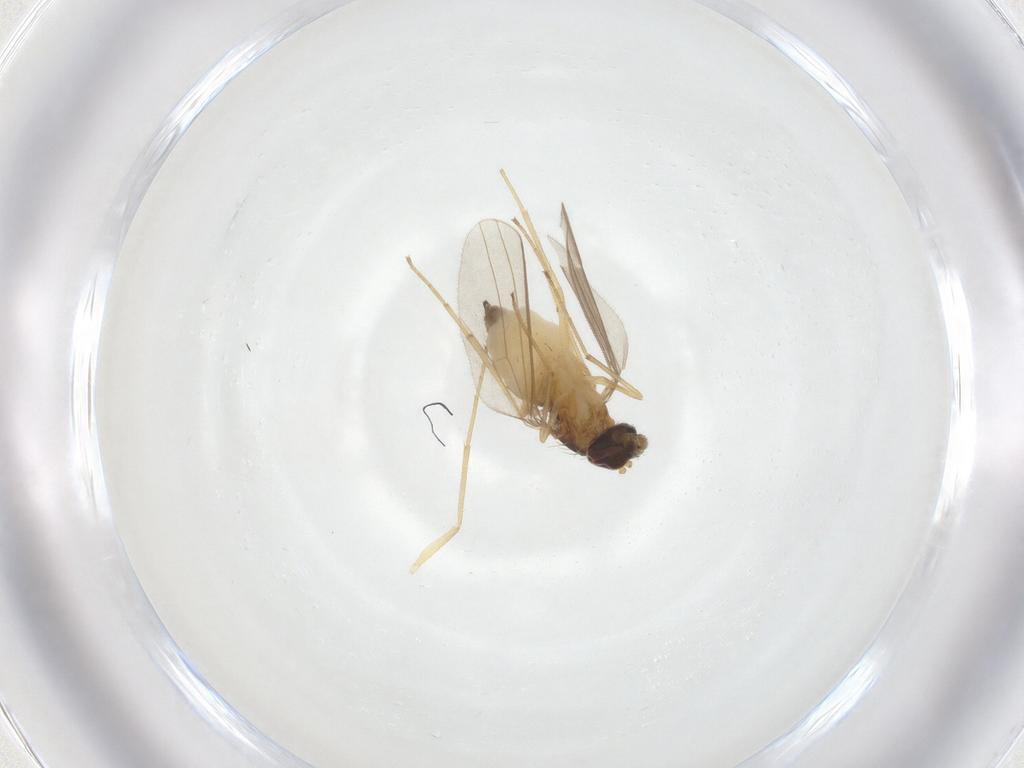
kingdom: Animalia
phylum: Arthropoda
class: Insecta
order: Diptera
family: Dolichopodidae
